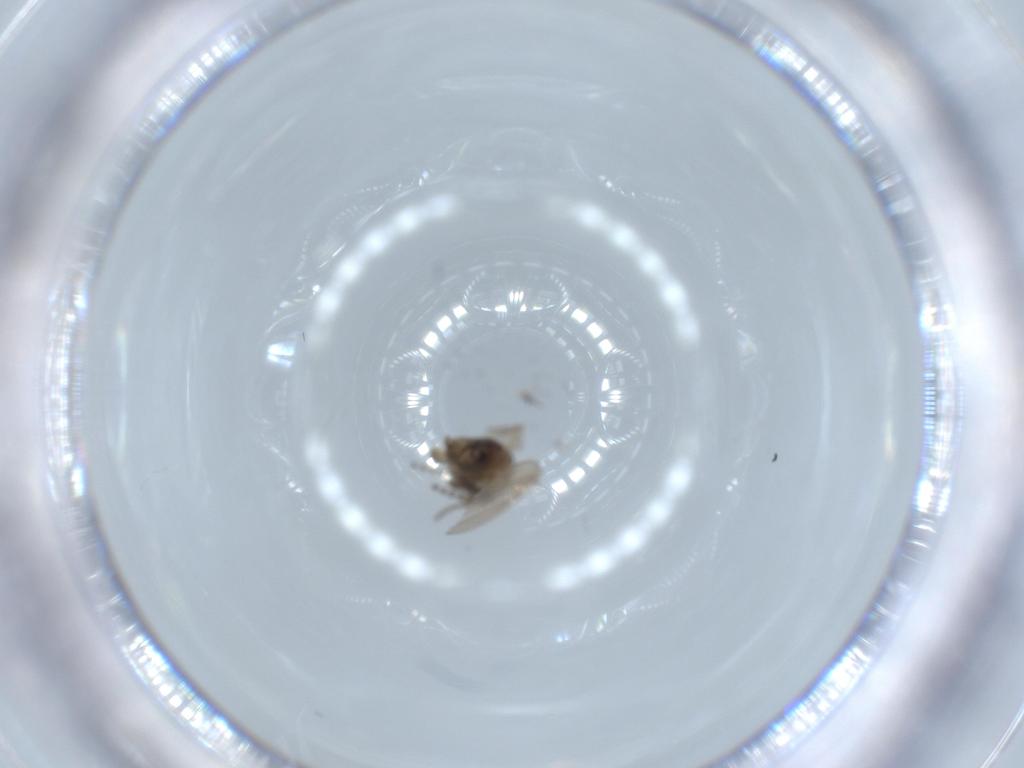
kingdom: Animalia
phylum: Arthropoda
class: Insecta
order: Diptera
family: Psychodidae
